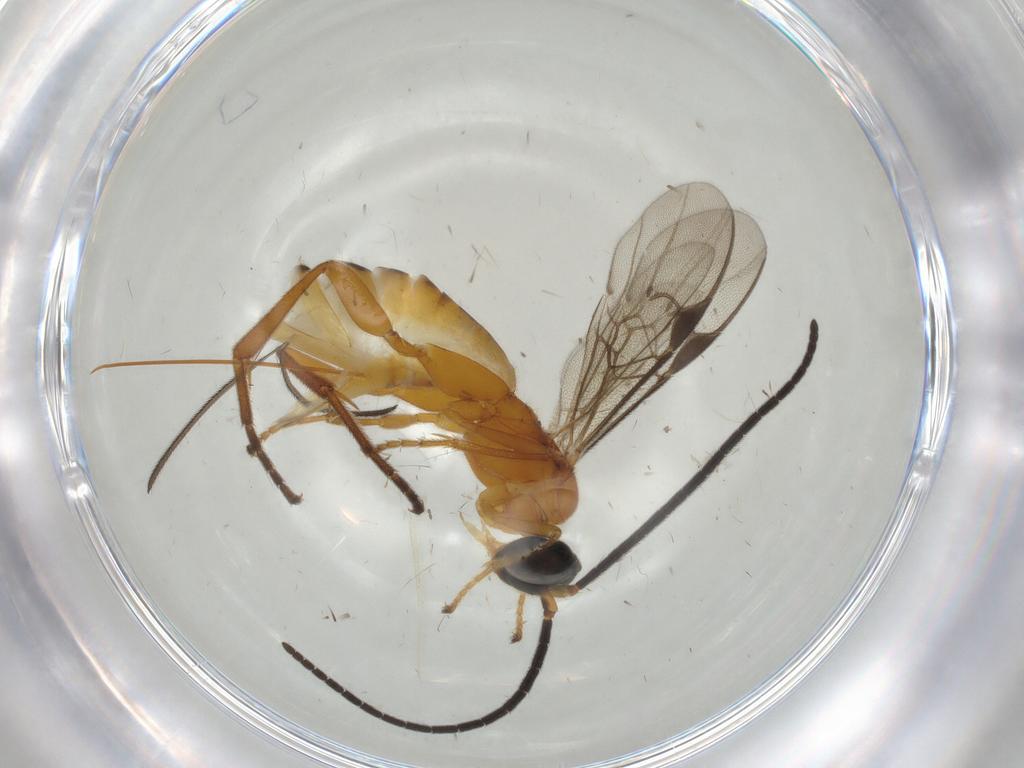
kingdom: Animalia
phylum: Arthropoda
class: Insecta
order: Hymenoptera
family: Braconidae
